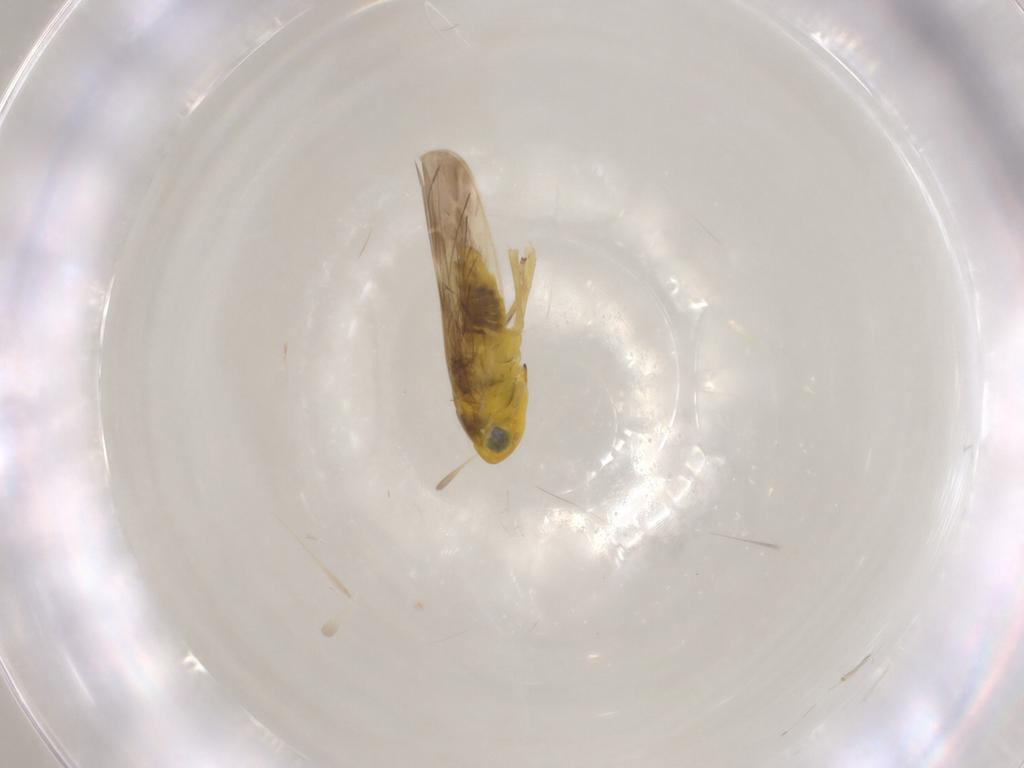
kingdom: Animalia
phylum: Arthropoda
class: Insecta
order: Hemiptera
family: Cicadellidae
